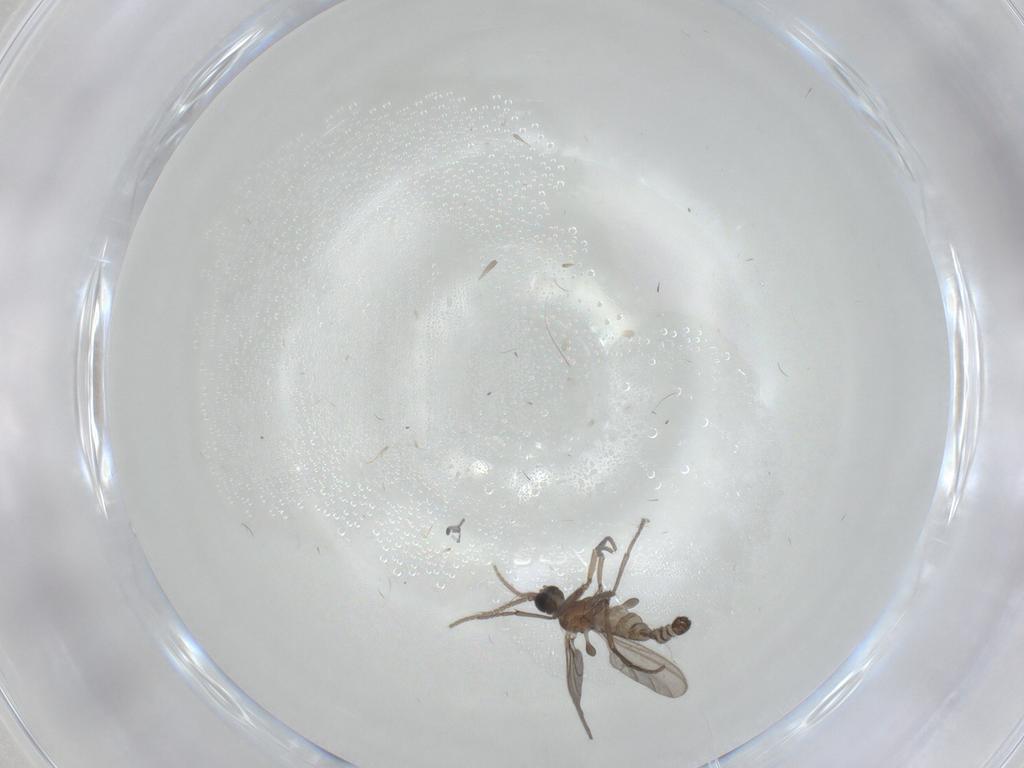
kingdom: Animalia
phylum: Arthropoda
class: Insecta
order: Diptera
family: Sciaridae
